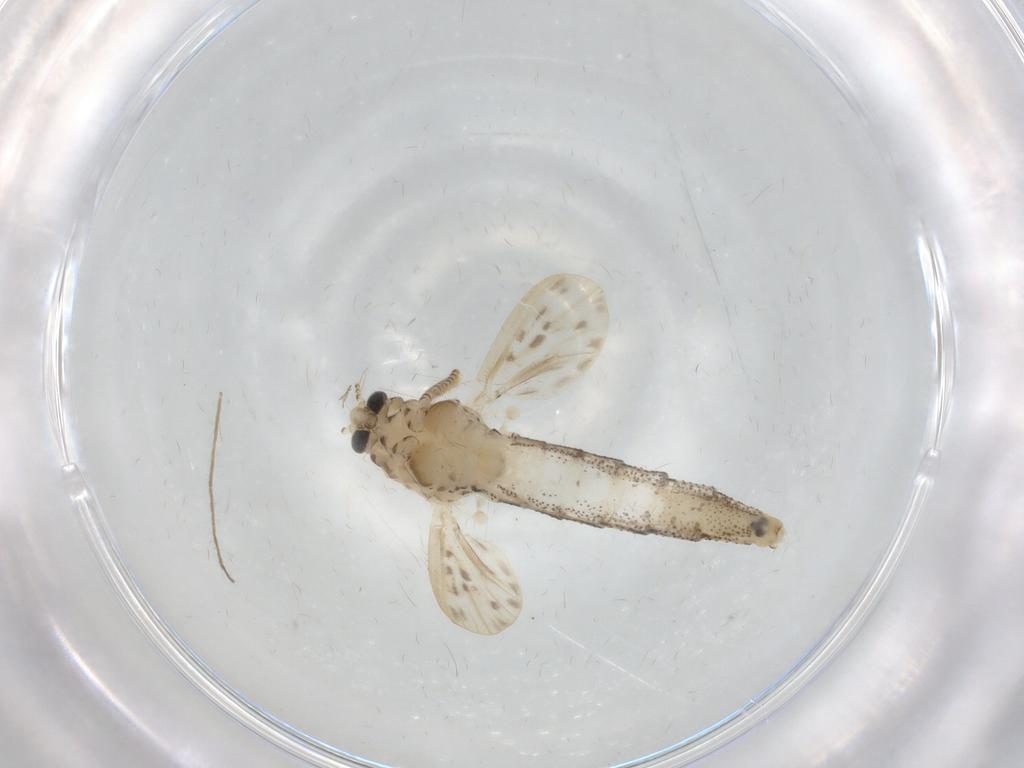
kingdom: Animalia
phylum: Arthropoda
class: Insecta
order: Diptera
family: Chaoboridae
